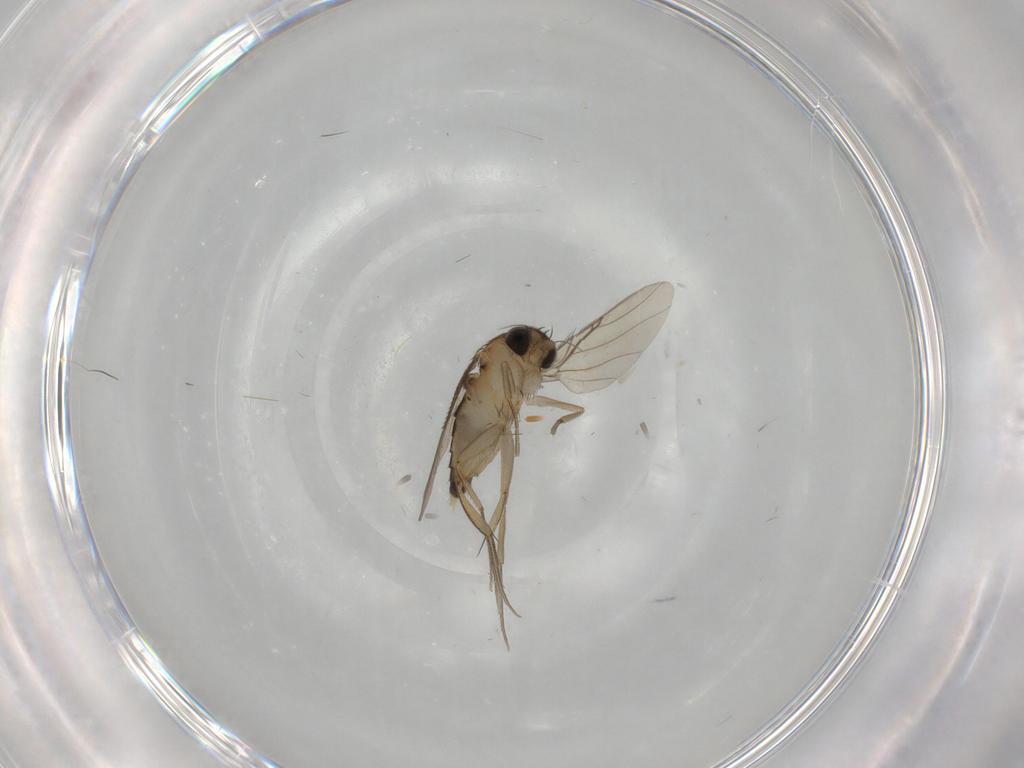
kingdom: Animalia
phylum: Arthropoda
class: Insecta
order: Diptera
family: Phoridae
